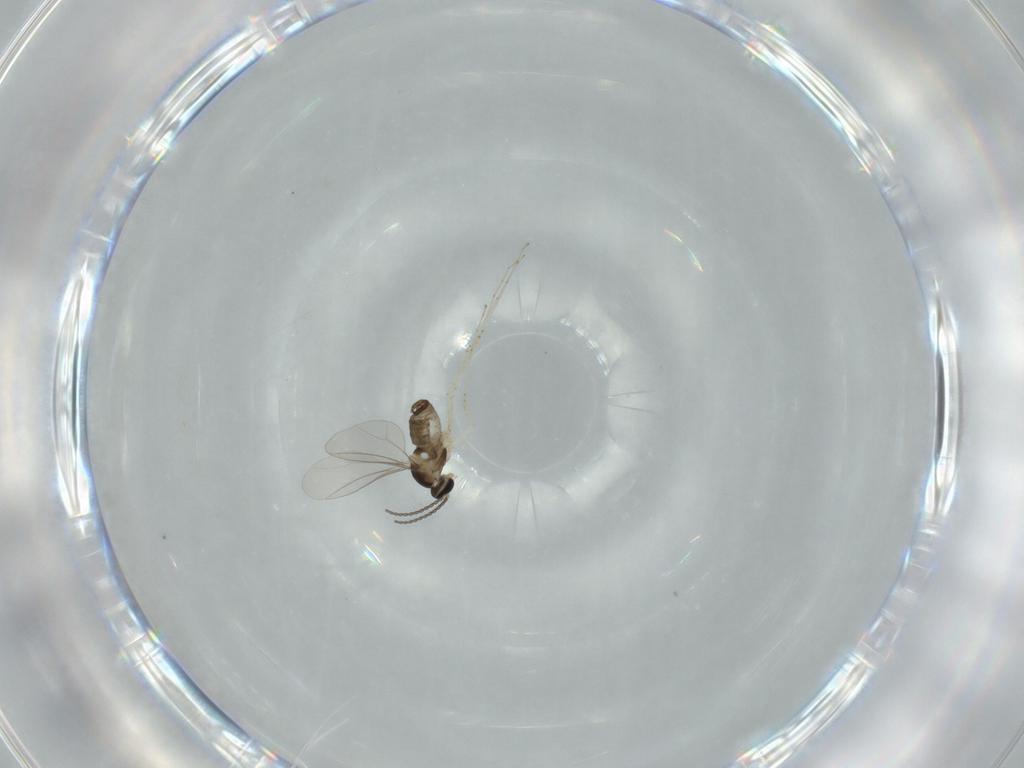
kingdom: Animalia
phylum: Arthropoda
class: Insecta
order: Diptera
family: Cecidomyiidae
